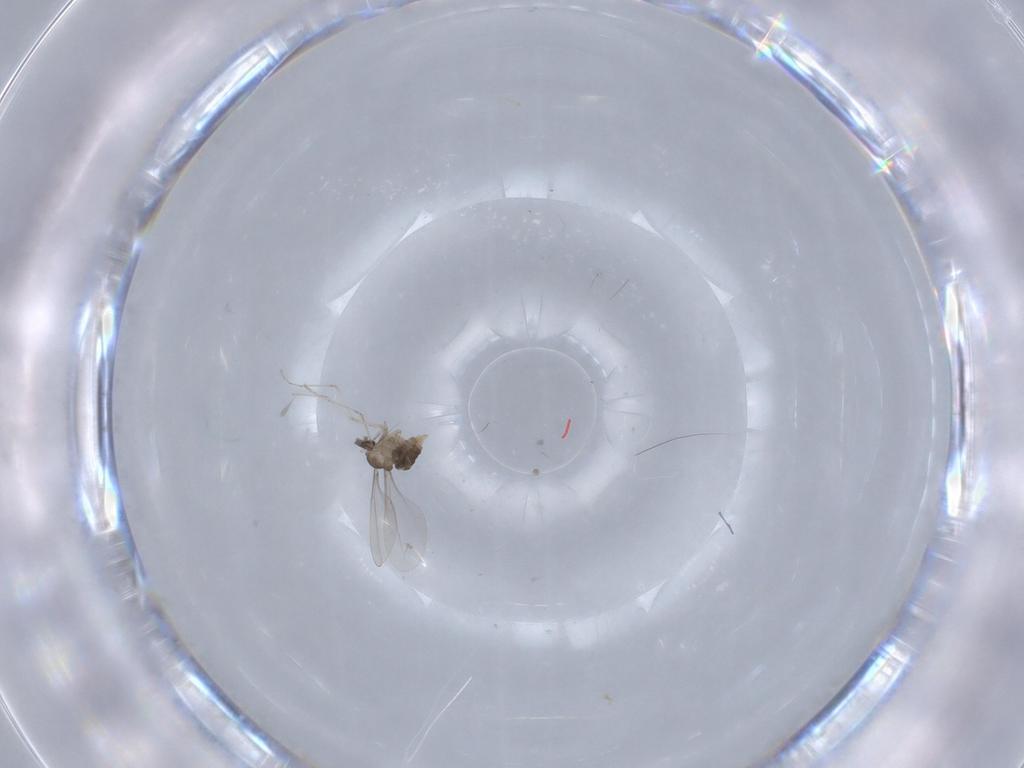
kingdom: Animalia
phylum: Arthropoda
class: Insecta
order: Diptera
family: Cecidomyiidae
